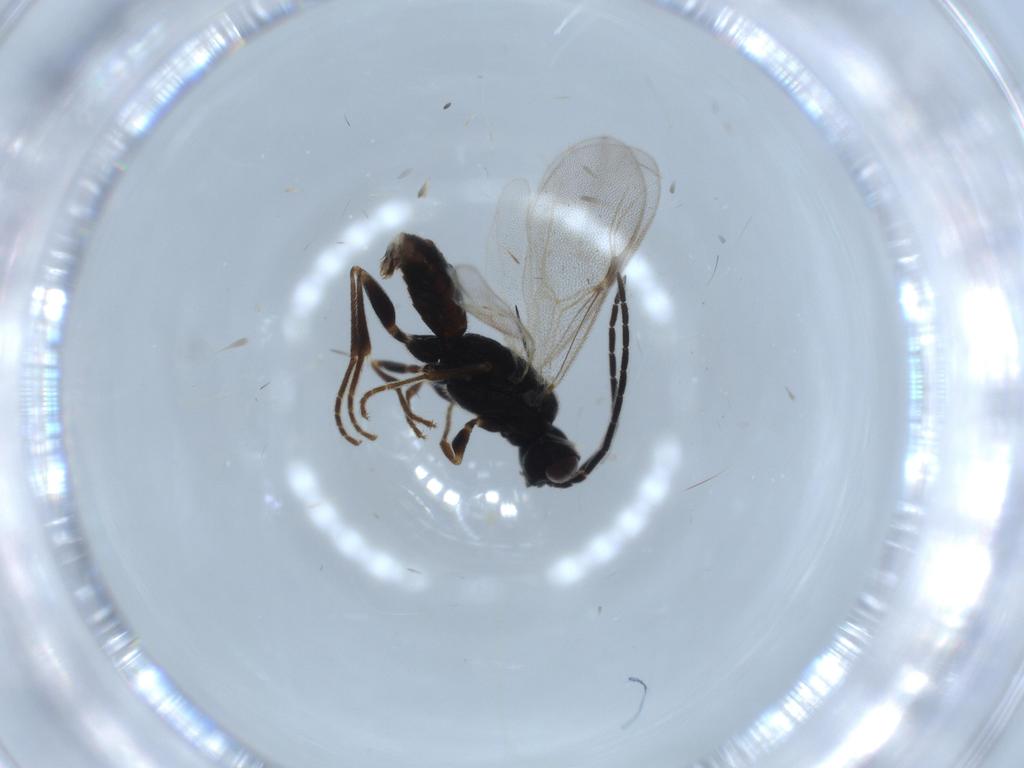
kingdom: Animalia
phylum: Arthropoda
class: Insecta
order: Hymenoptera
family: Dryinidae
